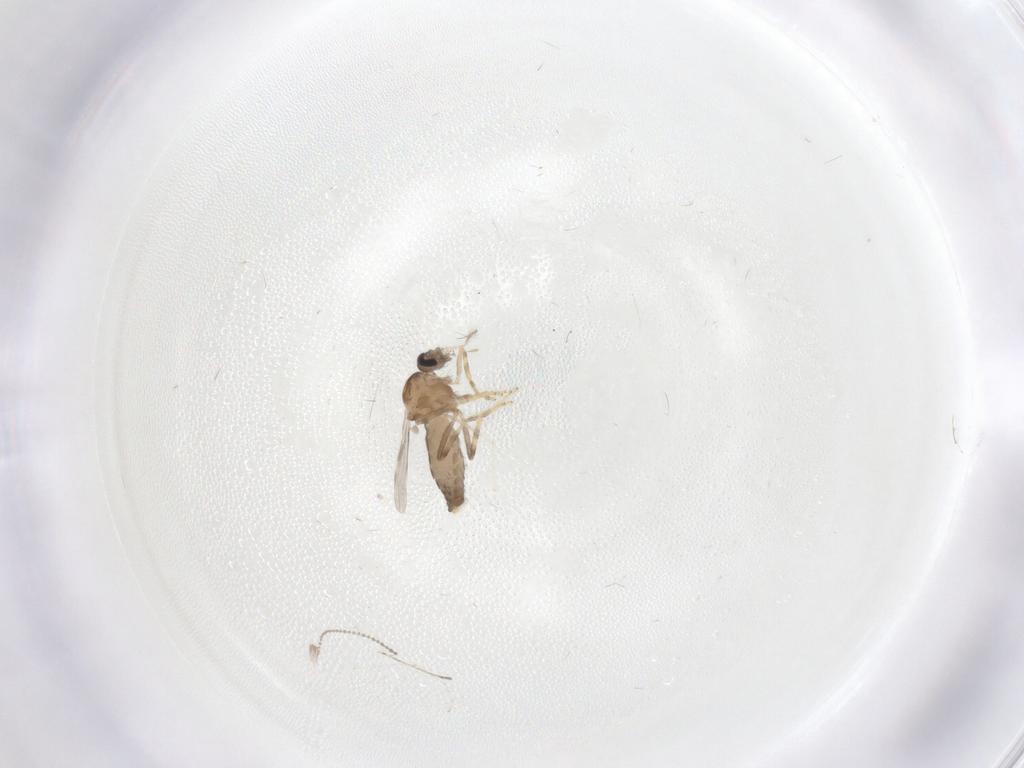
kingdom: Animalia
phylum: Arthropoda
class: Insecta
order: Diptera
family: Ceratopogonidae
